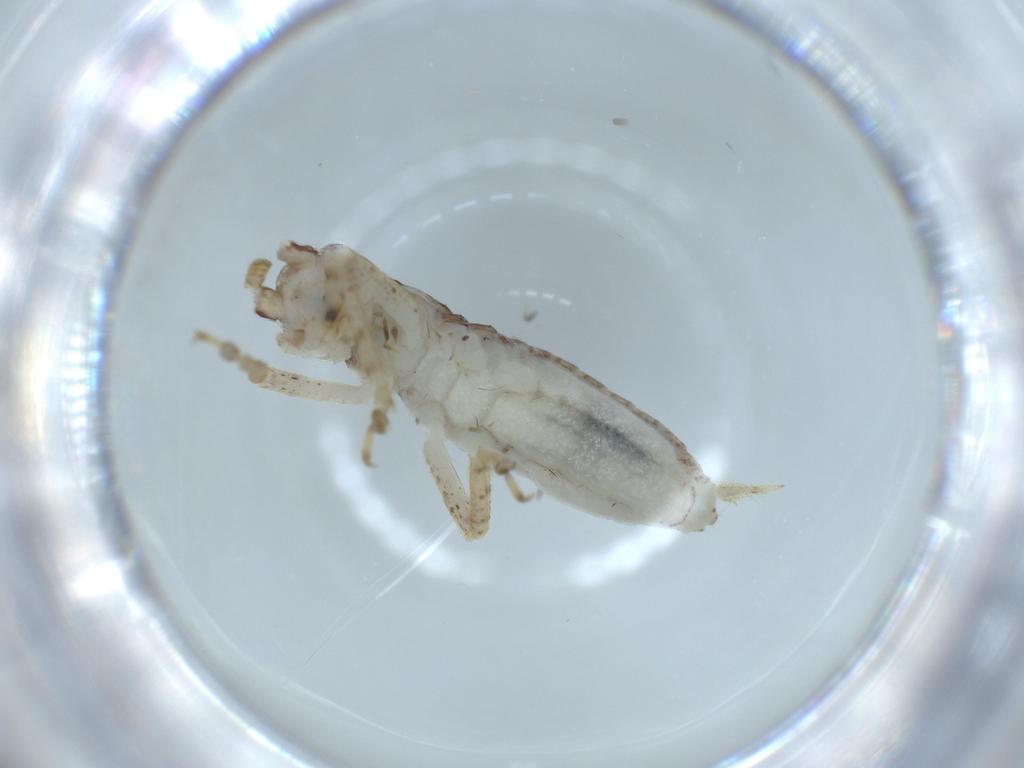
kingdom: Animalia
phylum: Arthropoda
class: Insecta
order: Orthoptera
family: Gryllidae
